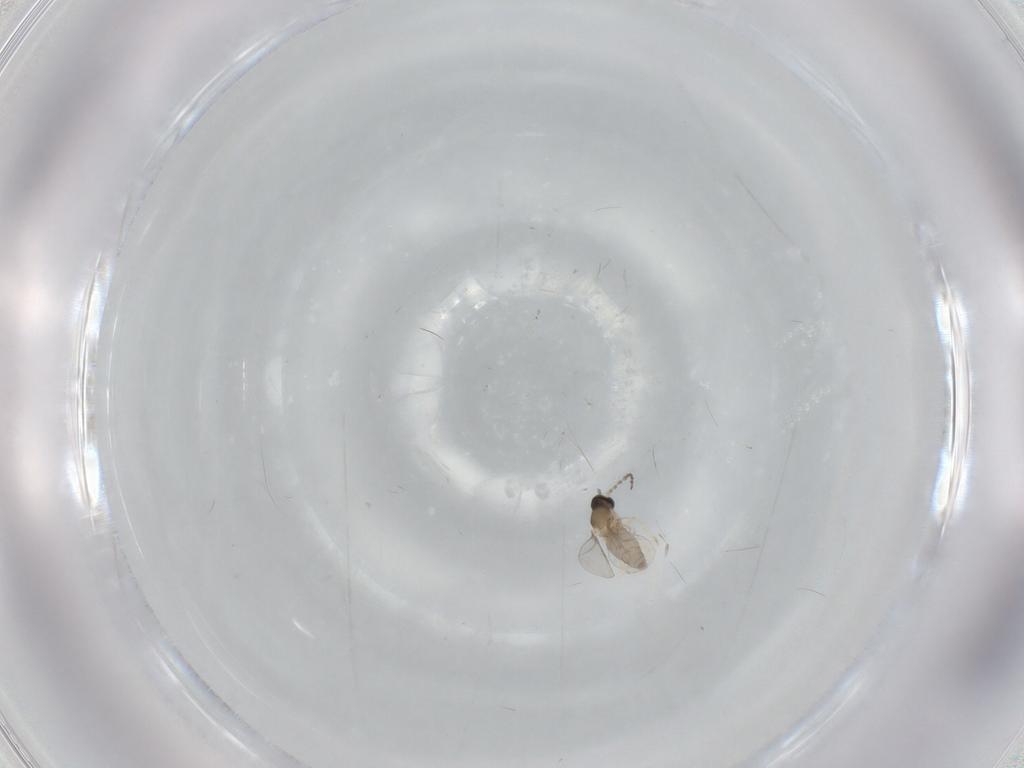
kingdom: Animalia
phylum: Arthropoda
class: Insecta
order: Diptera
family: Cecidomyiidae
